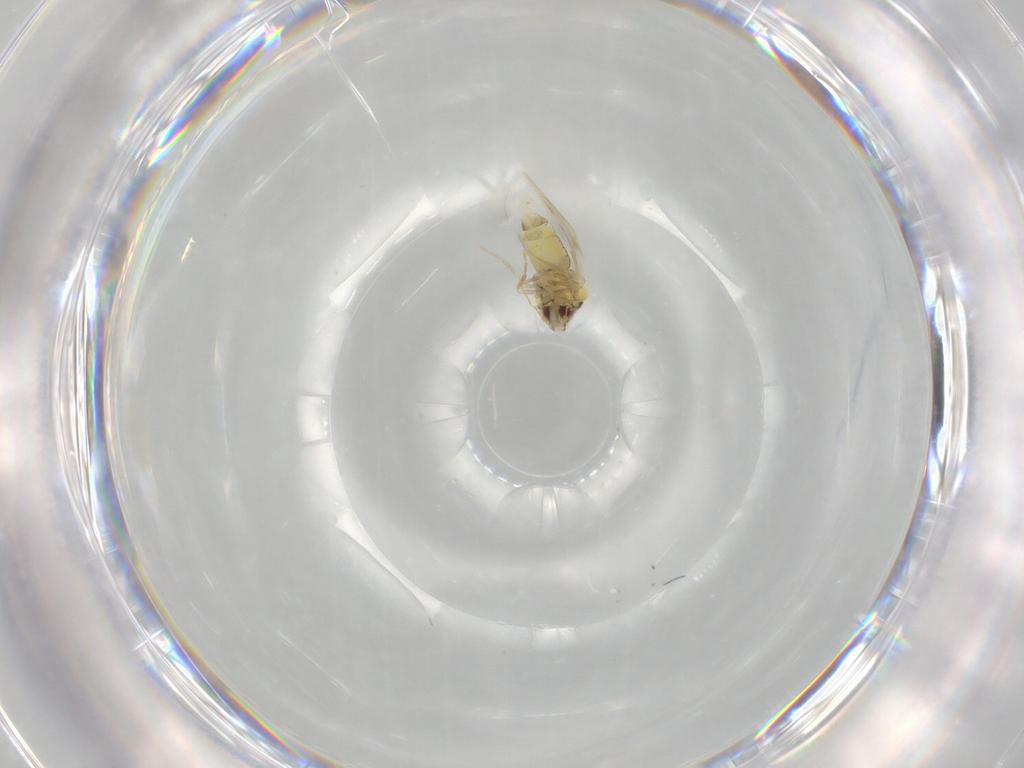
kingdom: Animalia
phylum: Arthropoda
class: Insecta
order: Hemiptera
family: Aleyrodidae
